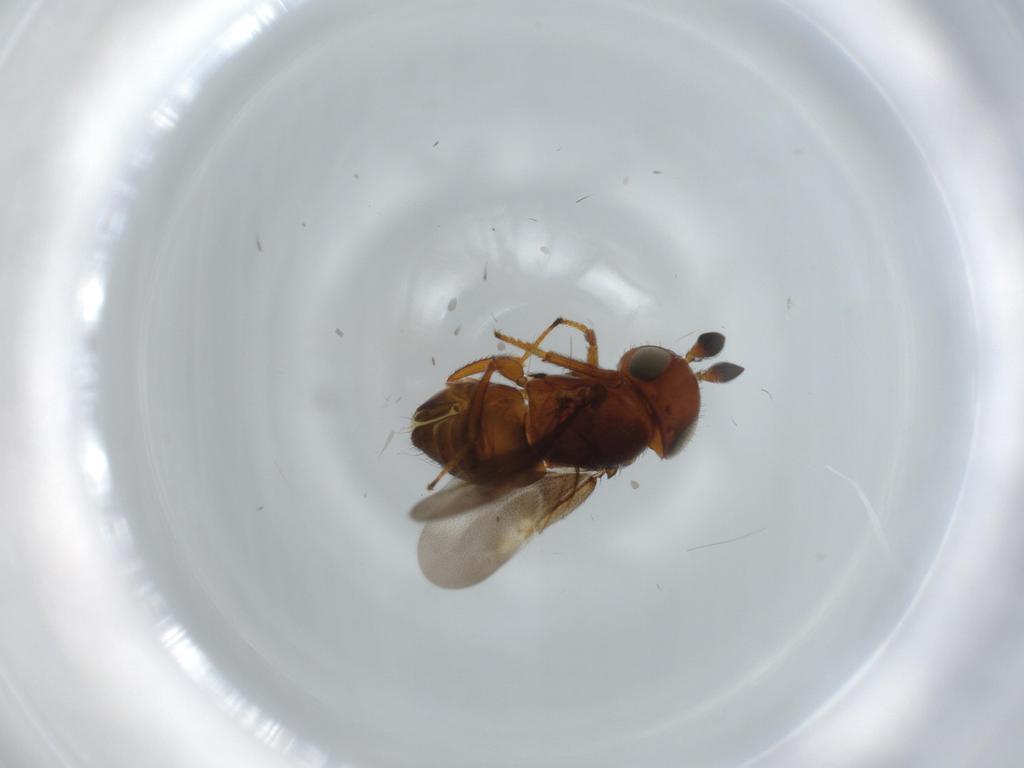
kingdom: Animalia
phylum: Arthropoda
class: Insecta
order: Hymenoptera
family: Encyrtidae
